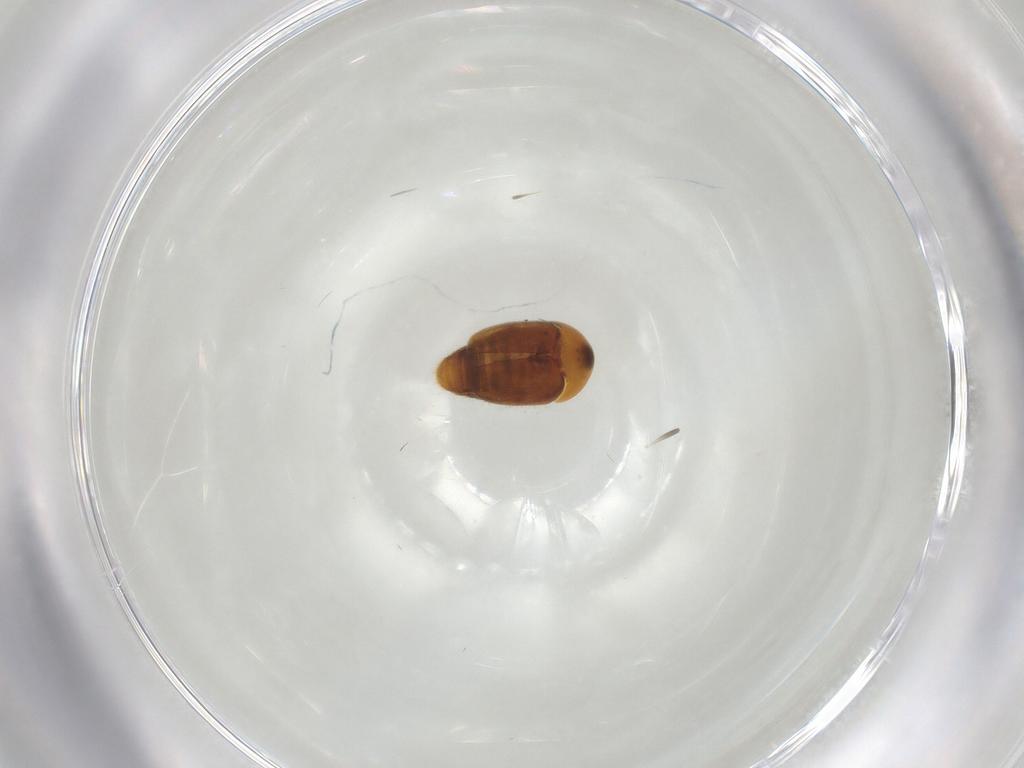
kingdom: Animalia
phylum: Arthropoda
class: Insecta
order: Coleoptera
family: Corylophidae
